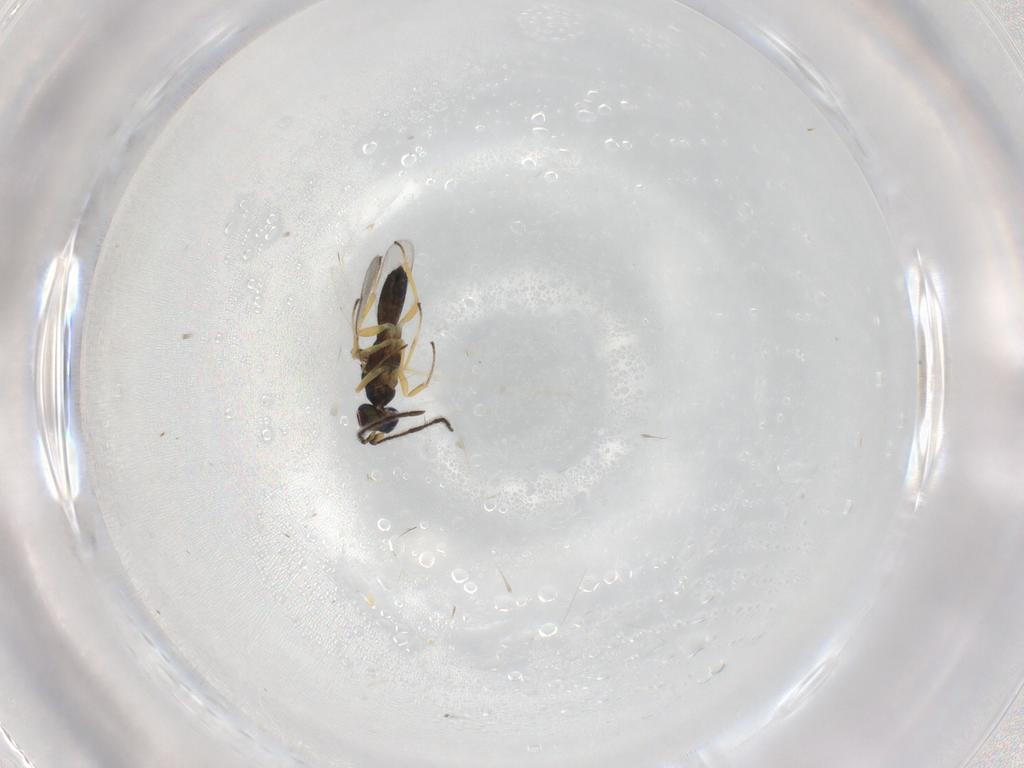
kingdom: Animalia
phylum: Arthropoda
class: Insecta
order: Hymenoptera
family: Eupelmidae
